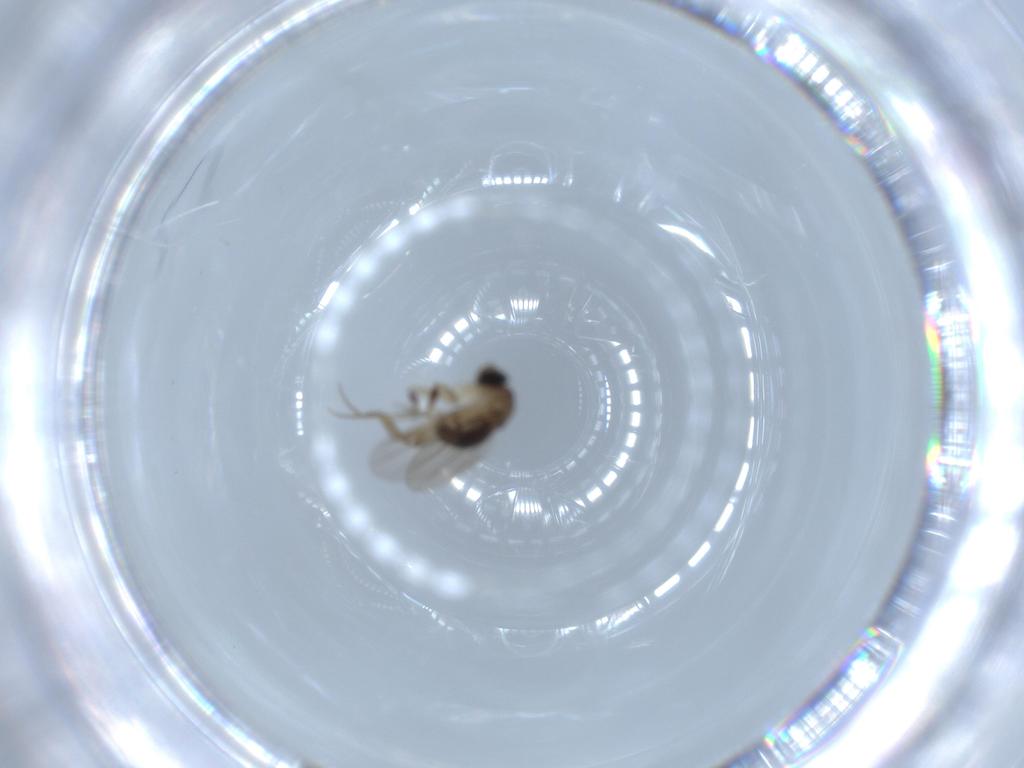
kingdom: Animalia
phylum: Arthropoda
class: Insecta
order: Diptera
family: Phoridae
